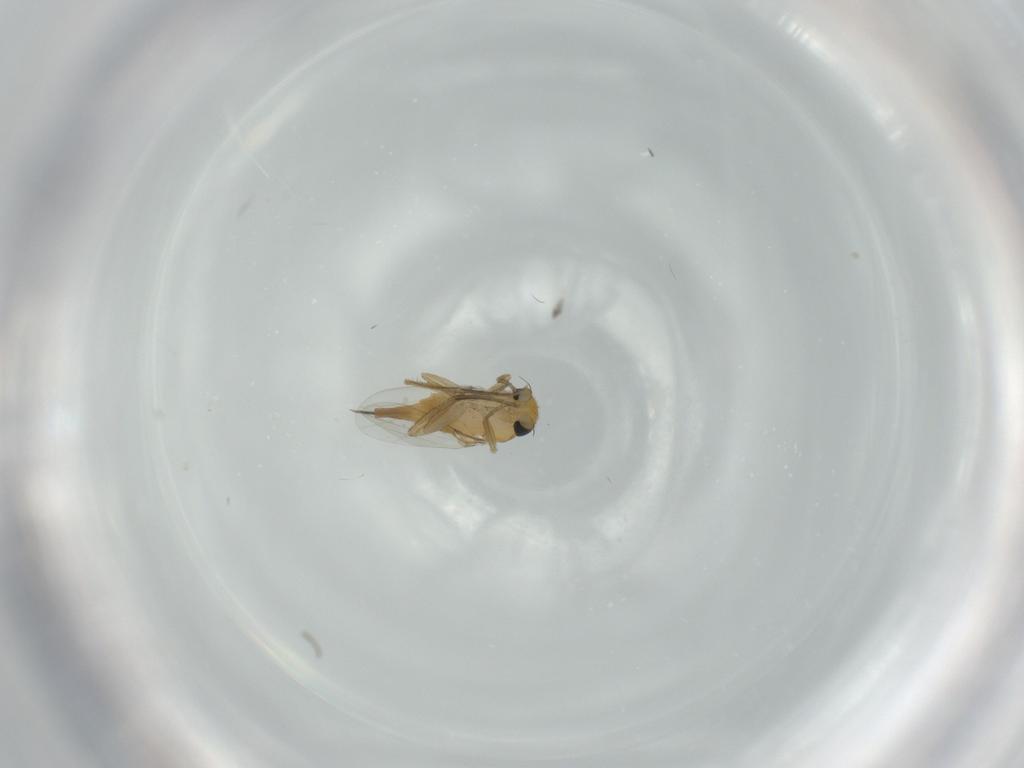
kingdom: Animalia
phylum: Arthropoda
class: Insecta
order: Diptera
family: Phoridae
